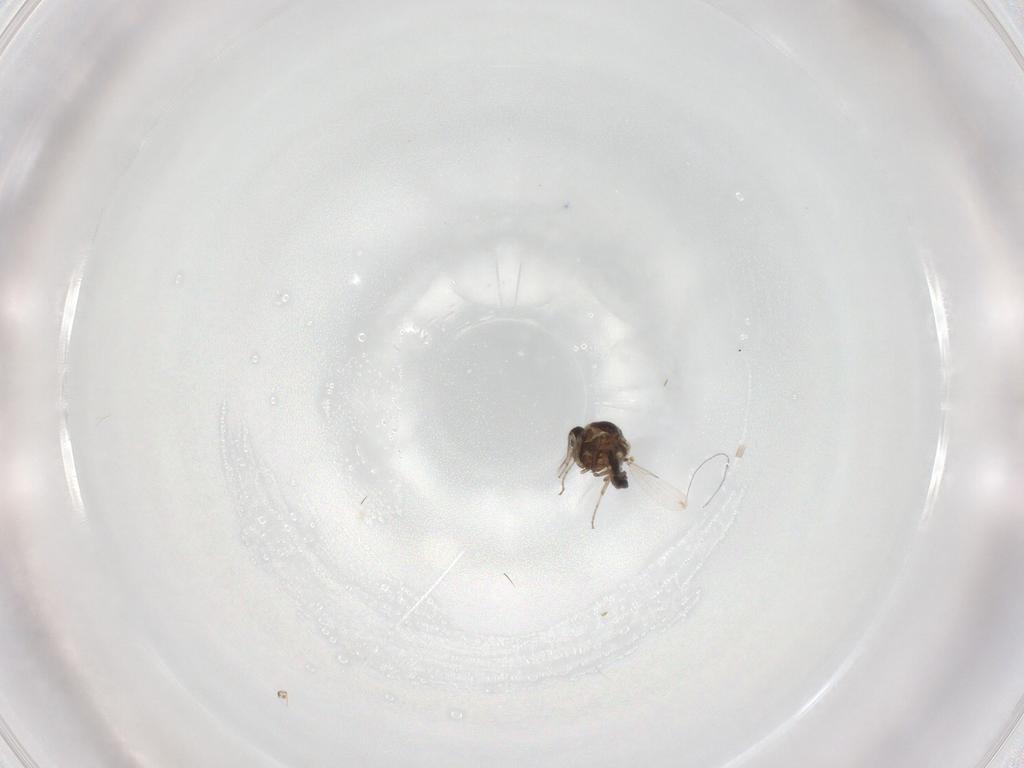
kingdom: Animalia
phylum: Arthropoda
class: Insecta
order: Diptera
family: Ceratopogonidae
